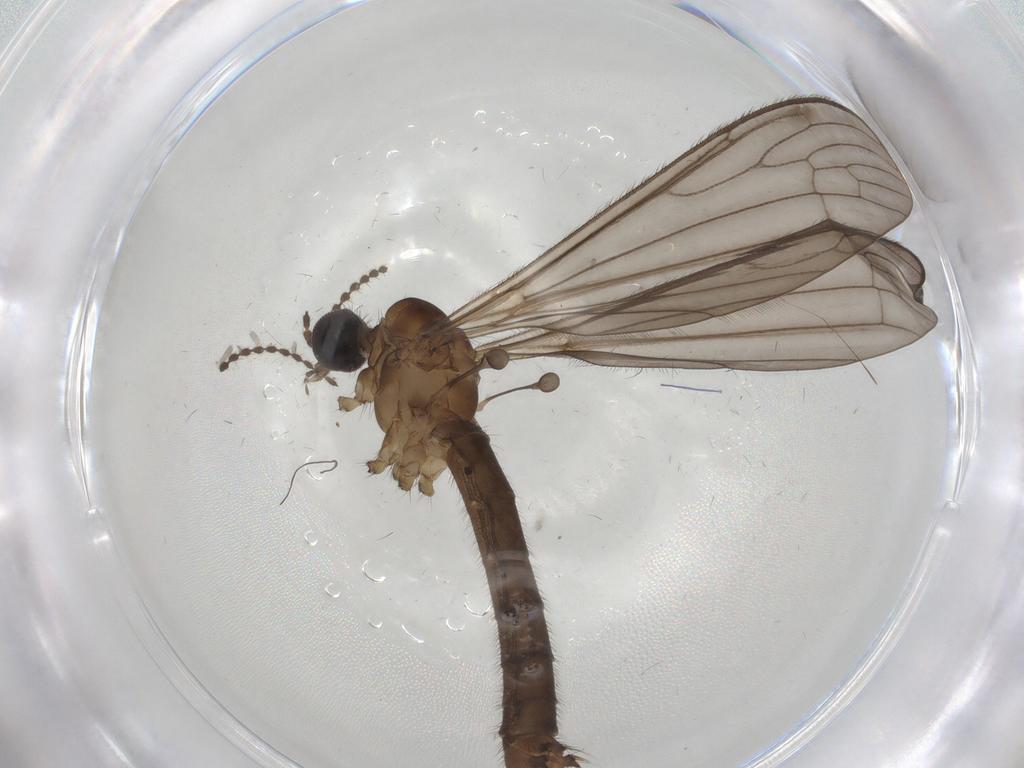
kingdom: Animalia
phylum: Arthropoda
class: Insecta
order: Diptera
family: Limoniidae
